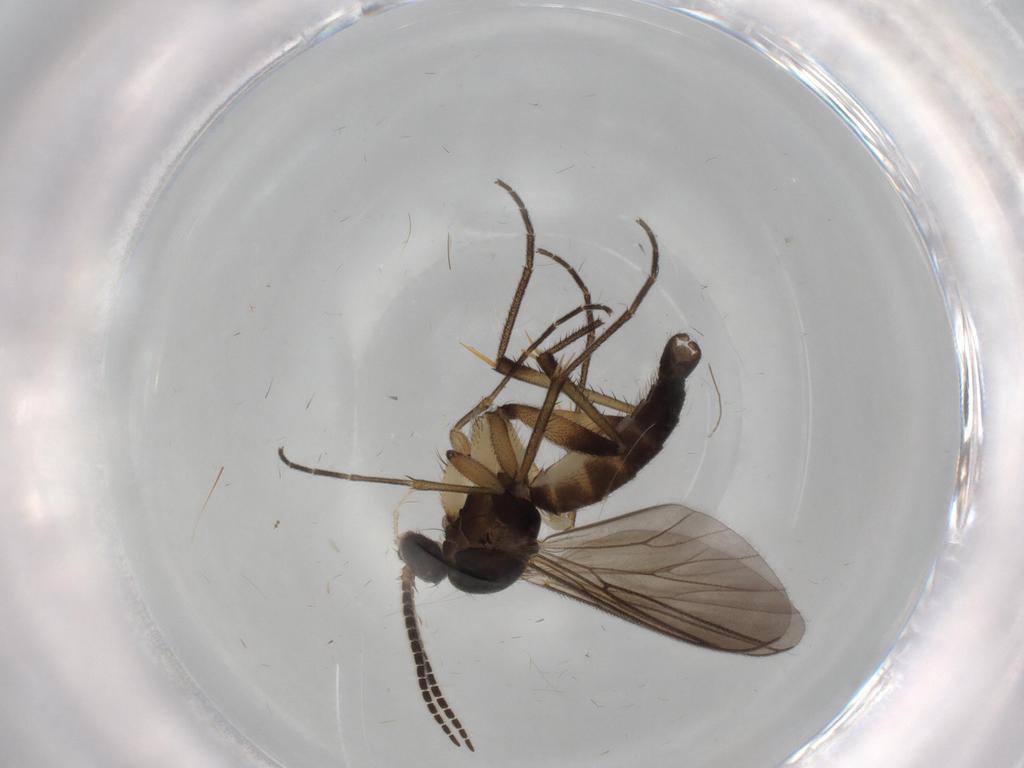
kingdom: Animalia
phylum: Arthropoda
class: Insecta
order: Diptera
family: Mycetophilidae
